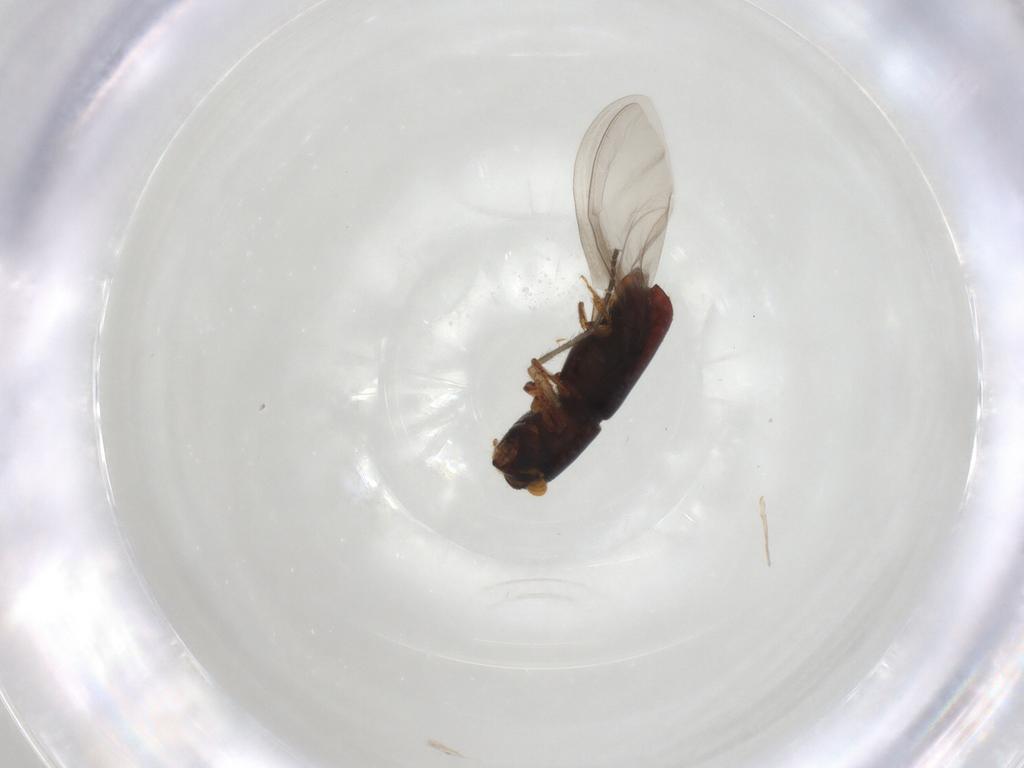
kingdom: Animalia
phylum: Arthropoda
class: Insecta
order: Coleoptera
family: Curculionidae
